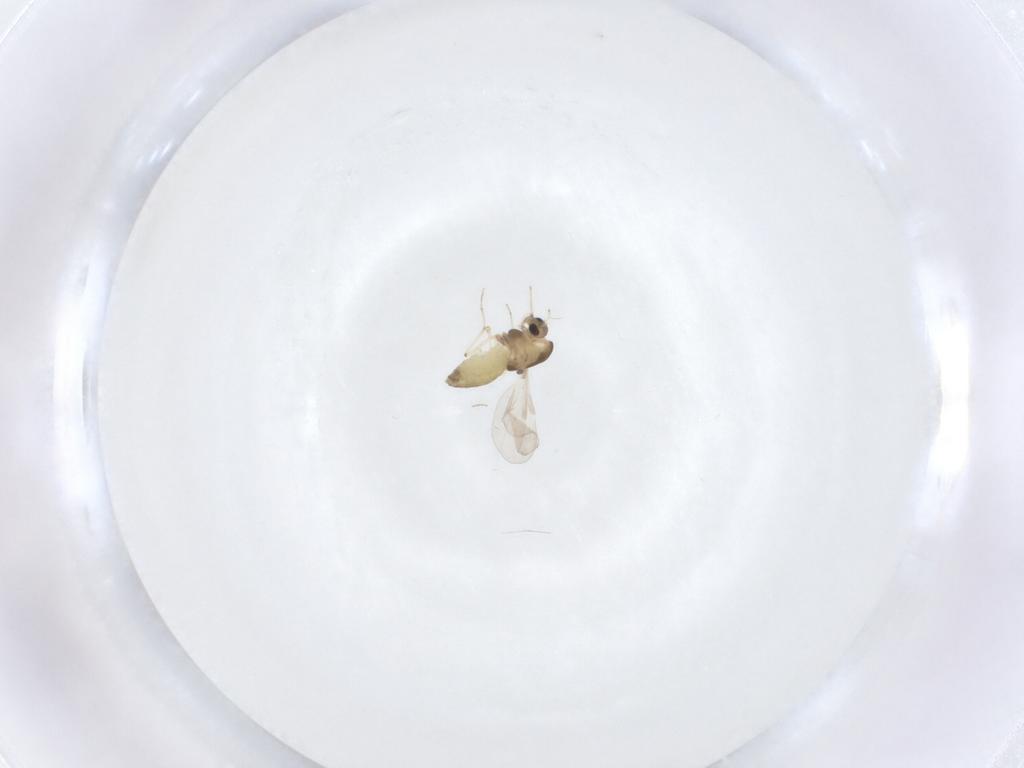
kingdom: Animalia
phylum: Arthropoda
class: Insecta
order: Diptera
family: Chironomidae
